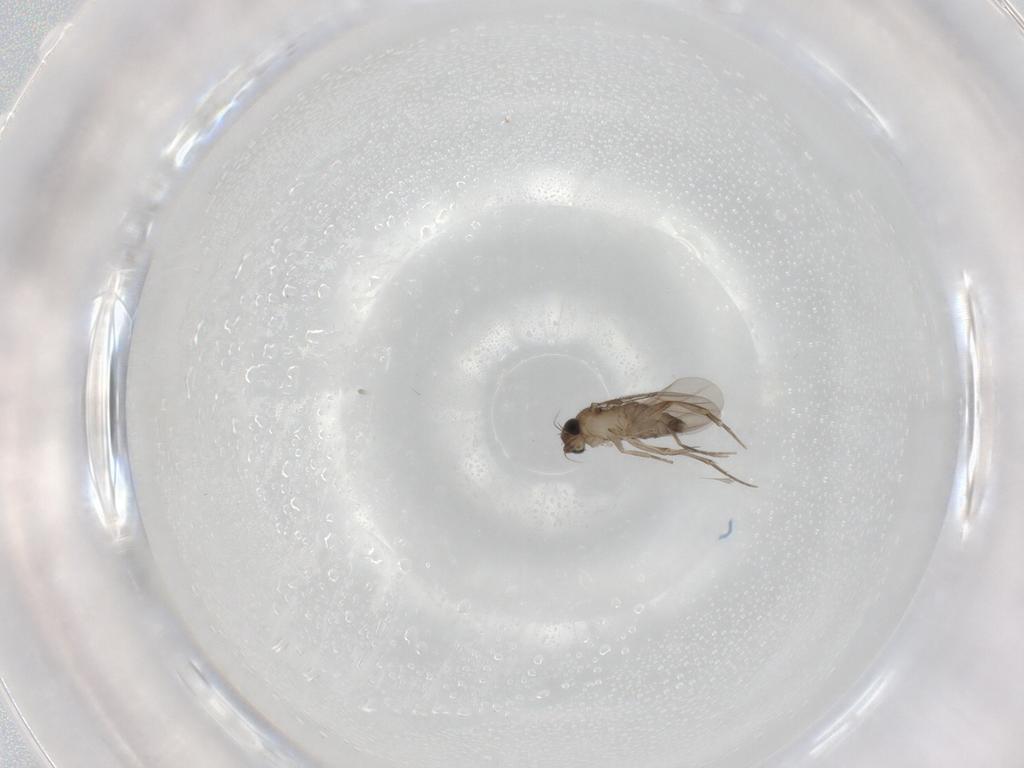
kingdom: Animalia
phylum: Arthropoda
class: Insecta
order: Diptera
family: Phoridae
